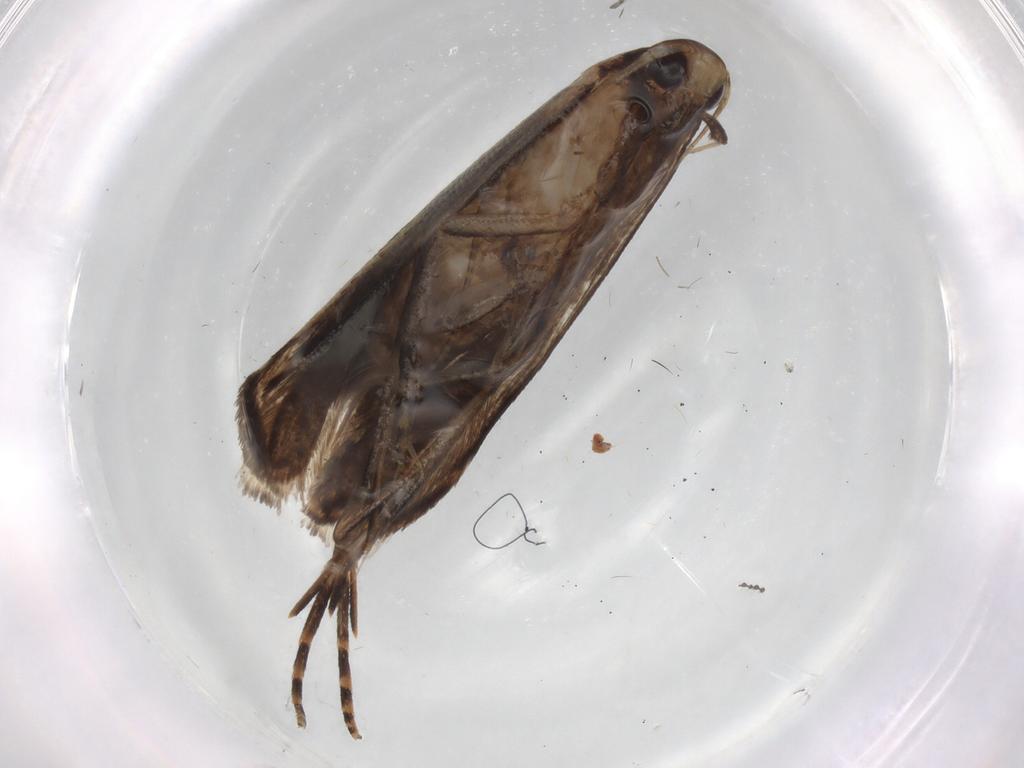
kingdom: Animalia
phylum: Arthropoda
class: Insecta
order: Lepidoptera
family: Gelechiidae
